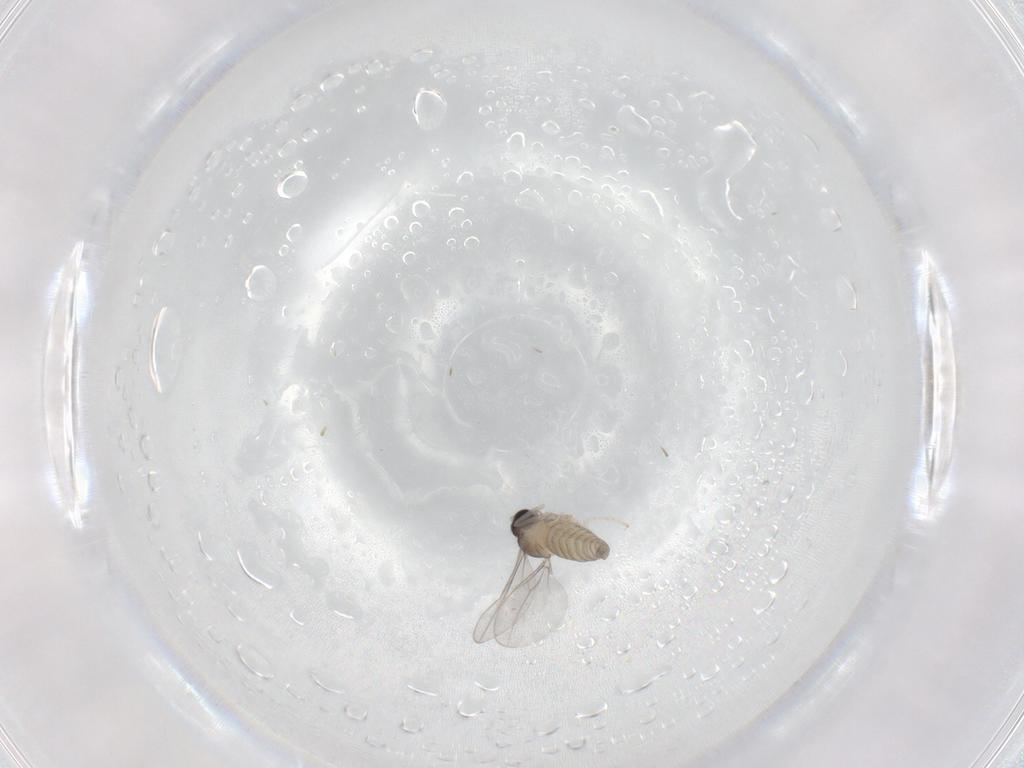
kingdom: Animalia
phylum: Arthropoda
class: Insecta
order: Diptera
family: Cecidomyiidae
